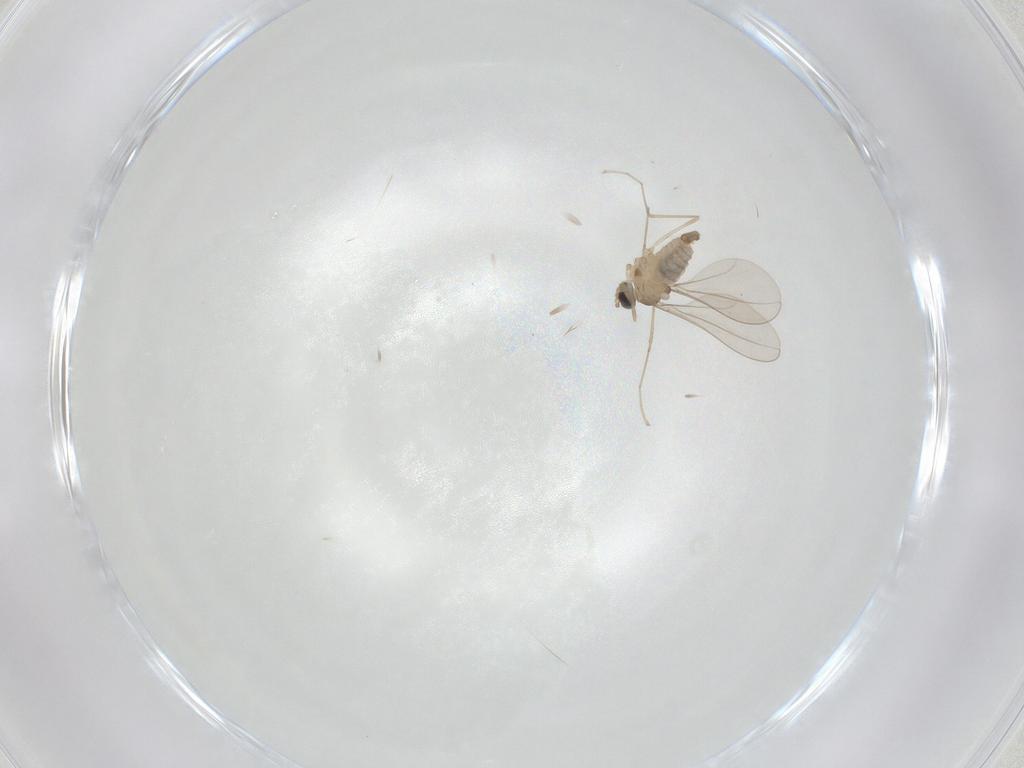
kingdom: Animalia
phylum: Arthropoda
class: Insecta
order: Diptera
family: Cecidomyiidae
